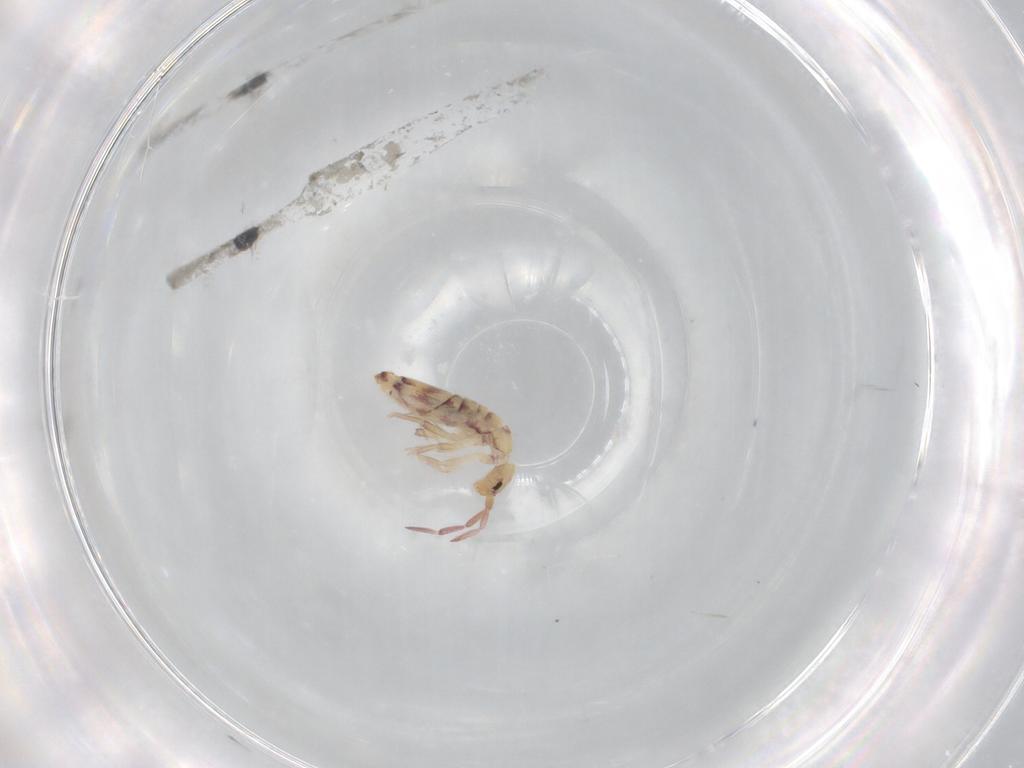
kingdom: Animalia
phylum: Arthropoda
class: Collembola
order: Entomobryomorpha
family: Entomobryidae
